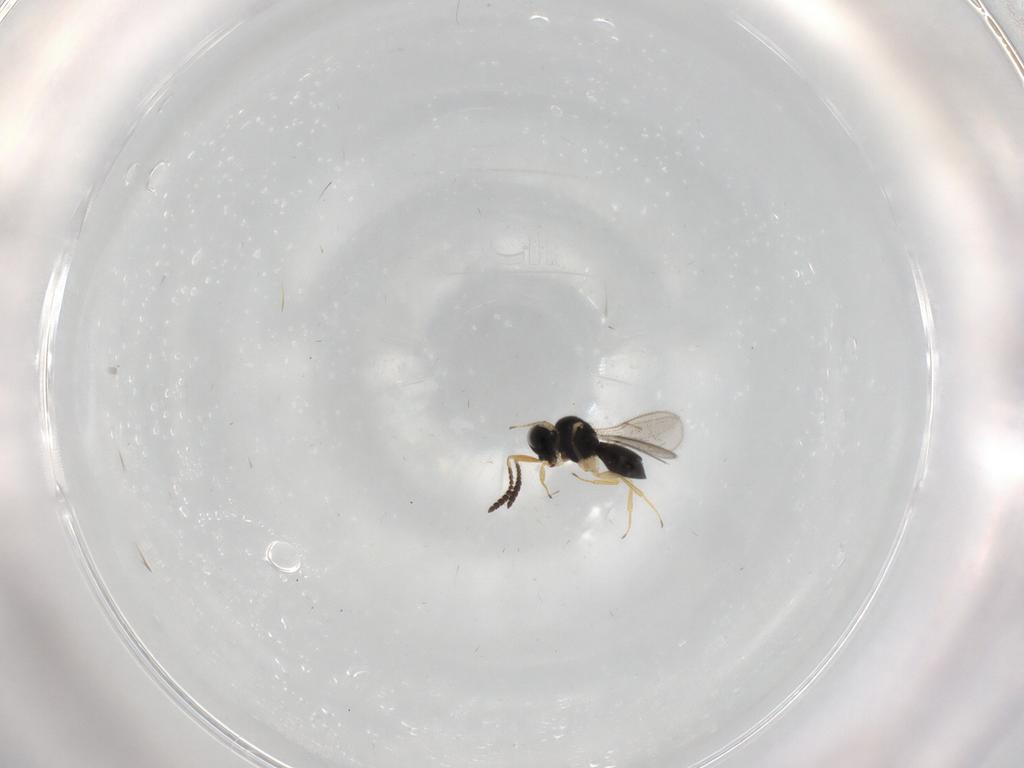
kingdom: Animalia
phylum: Arthropoda
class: Insecta
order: Hymenoptera
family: Scelionidae
